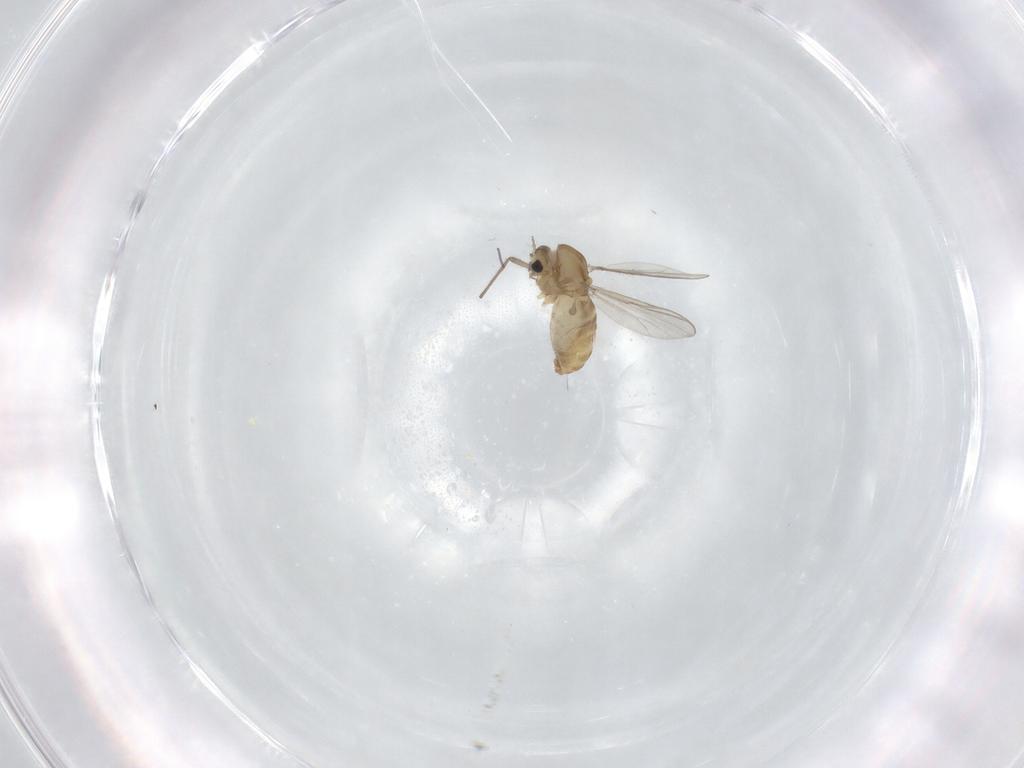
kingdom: Animalia
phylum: Arthropoda
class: Insecta
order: Diptera
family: Chironomidae
